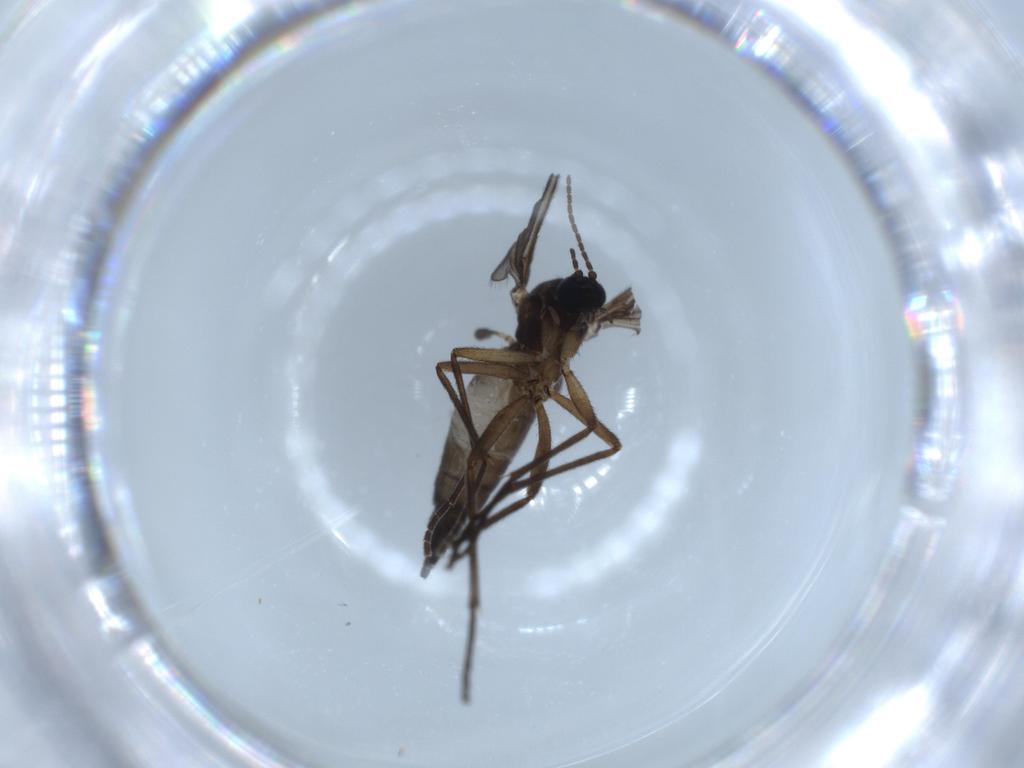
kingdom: Animalia
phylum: Arthropoda
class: Insecta
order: Diptera
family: Sciaridae
